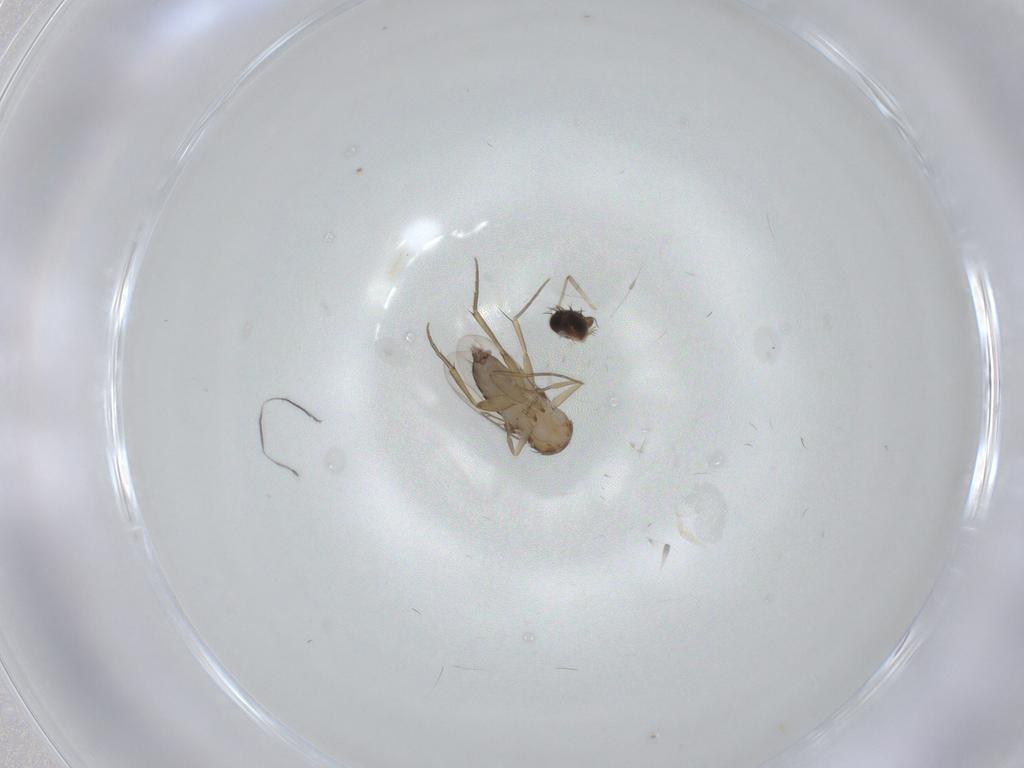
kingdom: Animalia
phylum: Arthropoda
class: Insecta
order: Diptera
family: Phoridae
